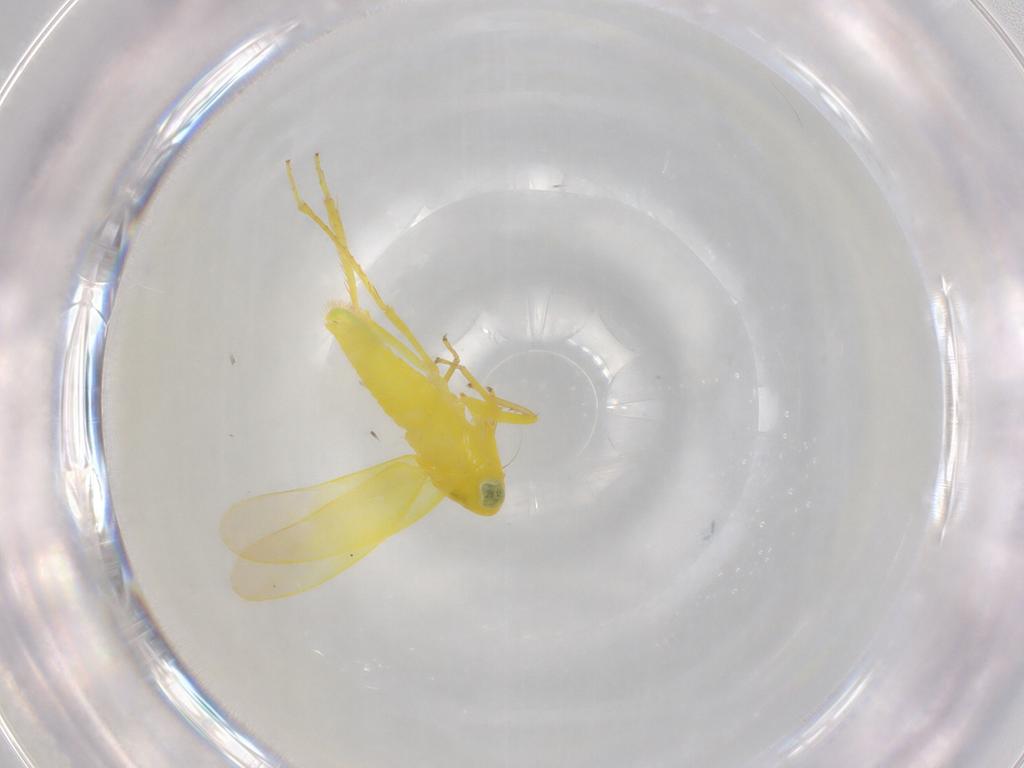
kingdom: Animalia
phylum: Arthropoda
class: Insecta
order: Hemiptera
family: Cicadellidae
